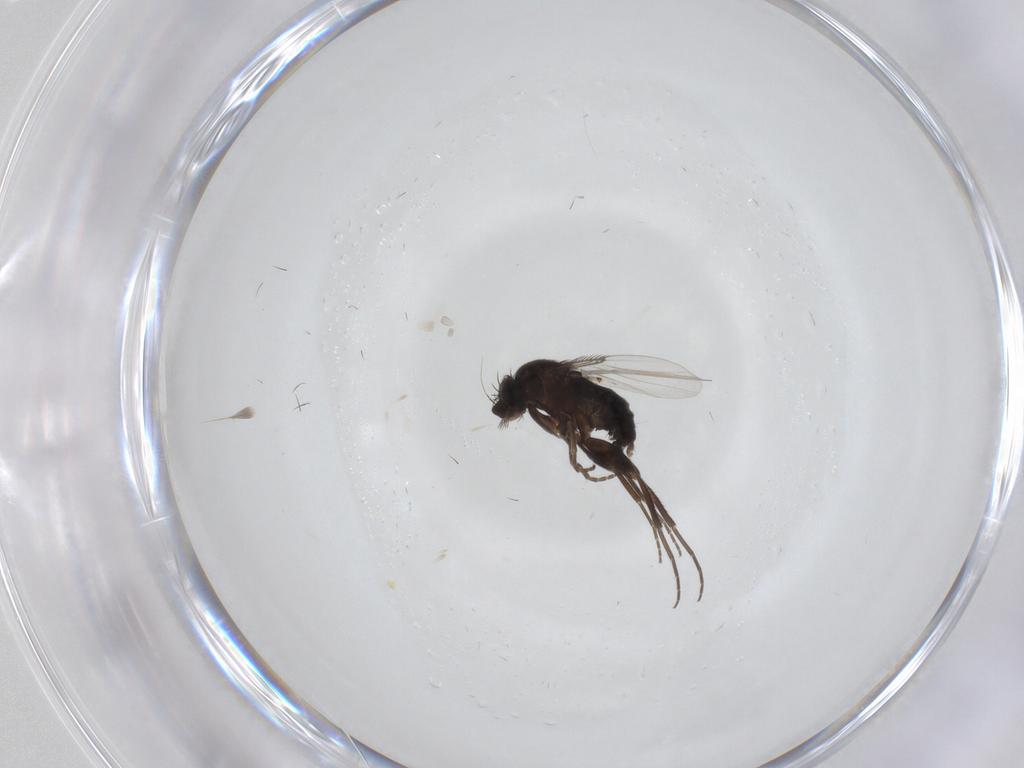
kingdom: Animalia
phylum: Arthropoda
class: Insecta
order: Diptera
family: Phoridae
